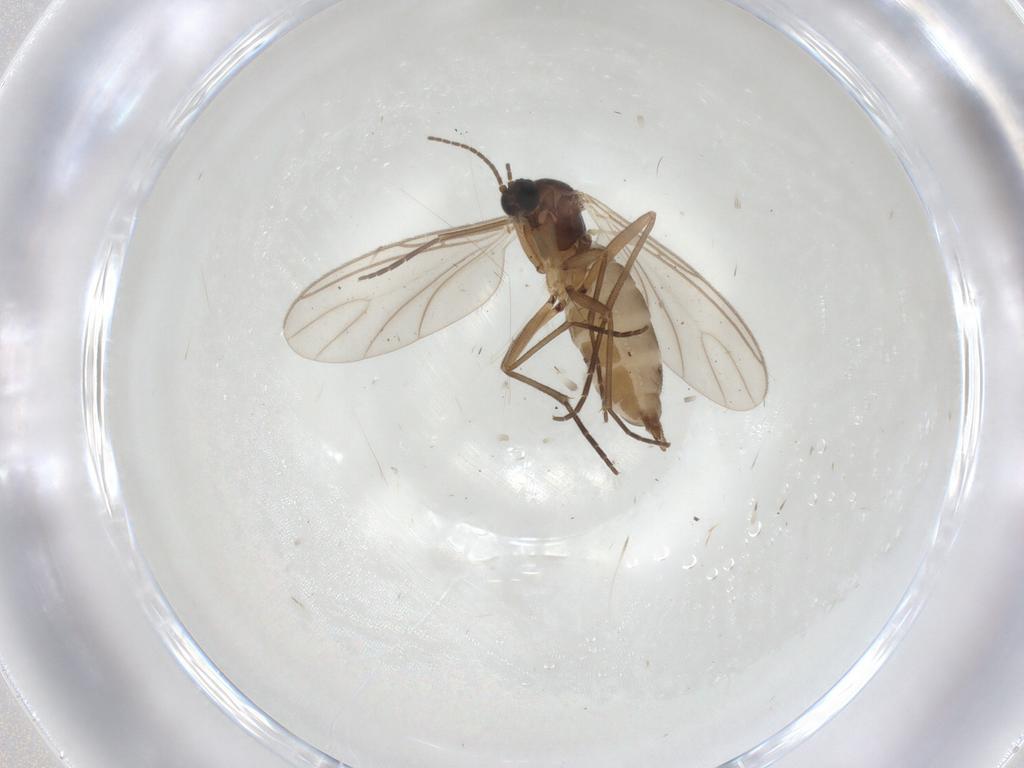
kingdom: Animalia
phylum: Arthropoda
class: Insecta
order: Diptera
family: Sciaridae
